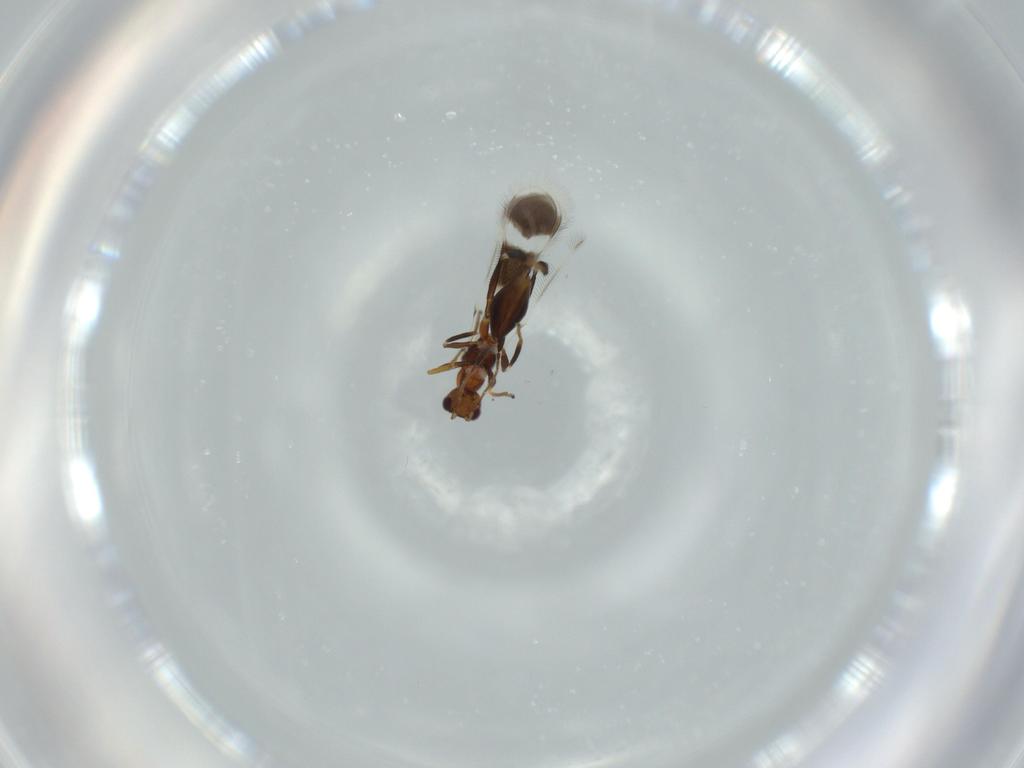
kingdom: Animalia
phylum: Arthropoda
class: Insecta
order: Hymenoptera
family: Mymaridae
